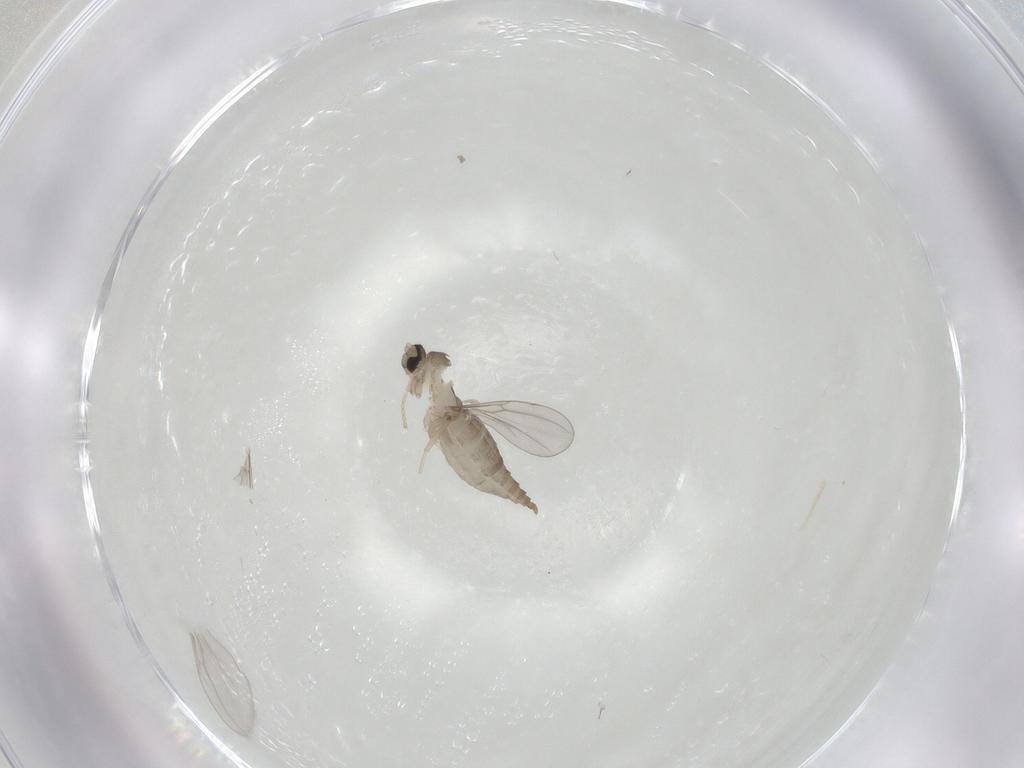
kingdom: Animalia
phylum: Arthropoda
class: Insecta
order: Diptera
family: Cecidomyiidae
